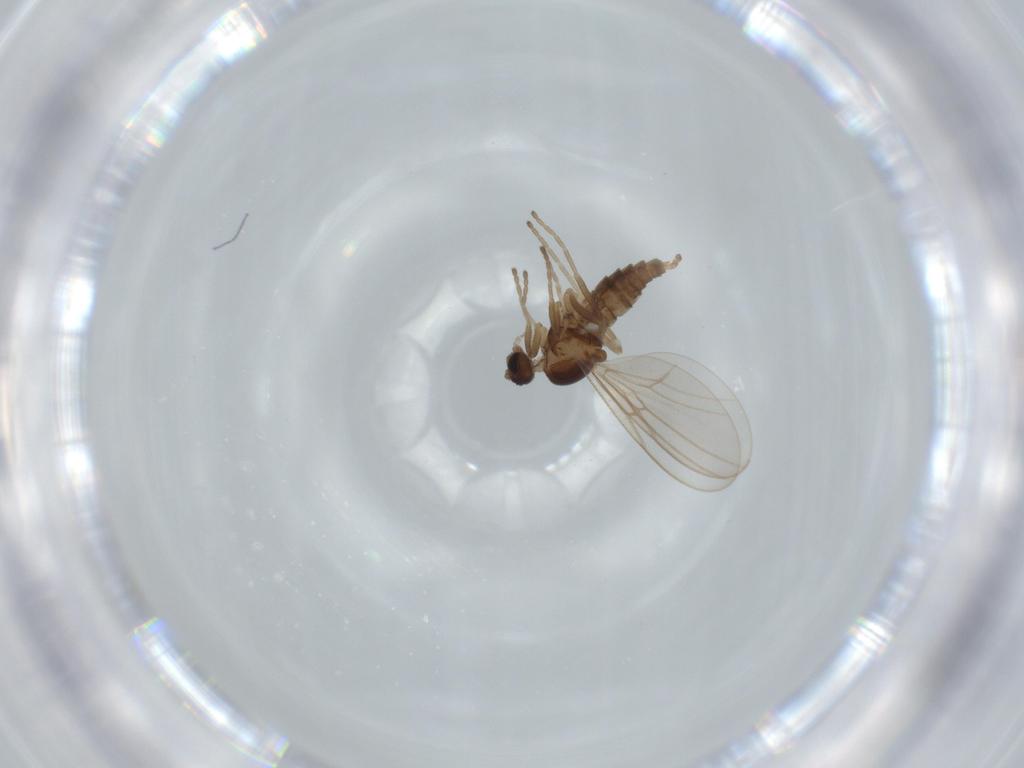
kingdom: Animalia
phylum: Arthropoda
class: Insecta
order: Diptera
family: Cecidomyiidae
